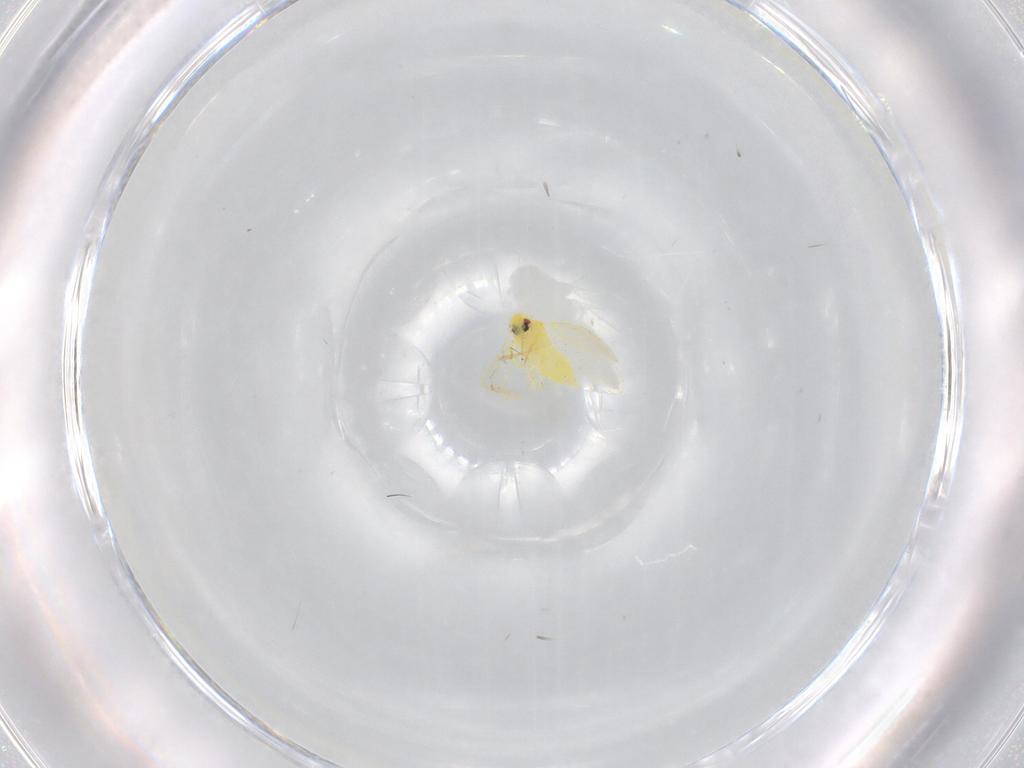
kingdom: Animalia
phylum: Arthropoda
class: Insecta
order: Hemiptera
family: Aleyrodidae
